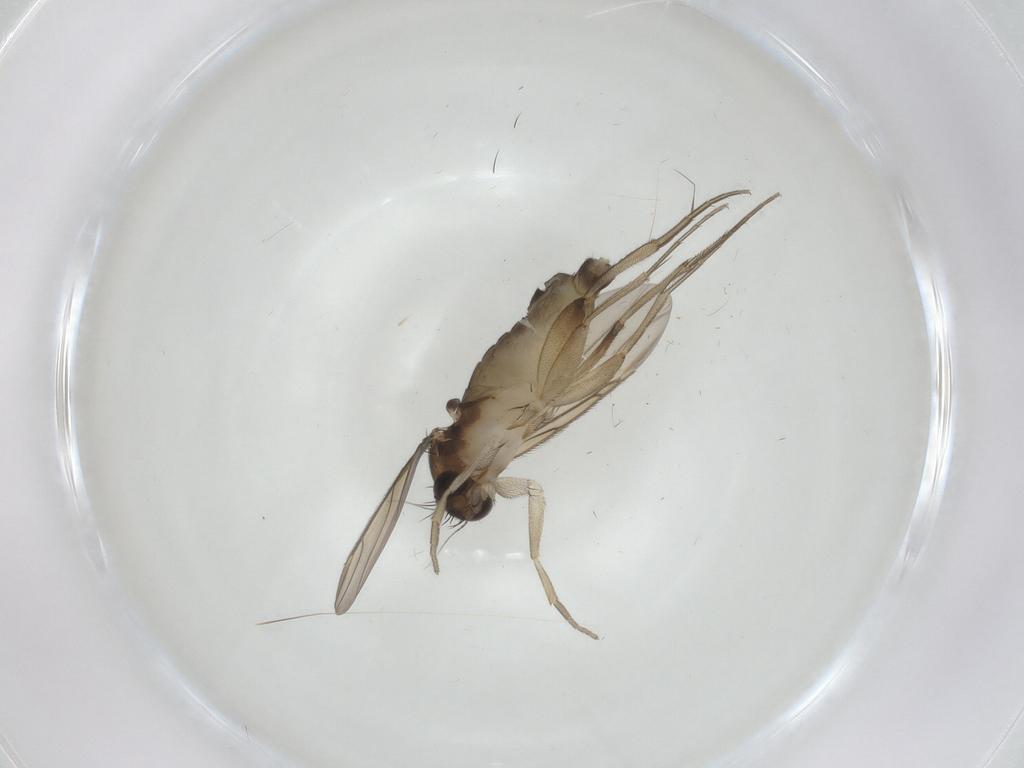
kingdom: Animalia
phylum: Arthropoda
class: Insecta
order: Diptera
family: Phoridae
